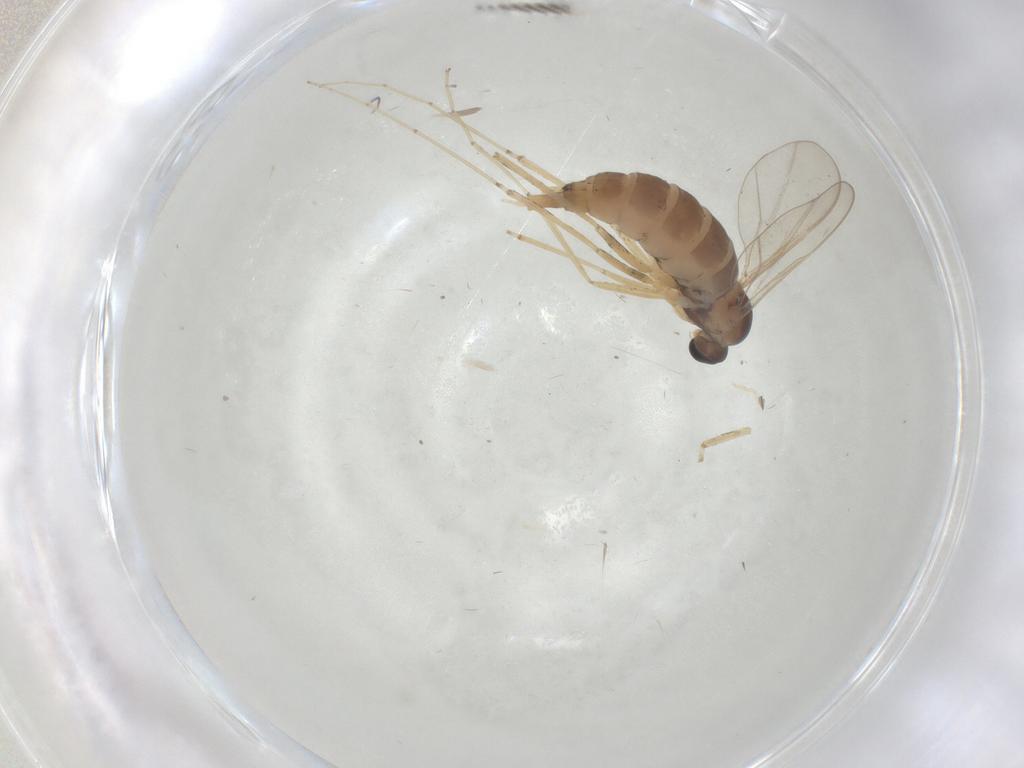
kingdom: Animalia
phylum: Arthropoda
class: Insecta
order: Diptera
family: Cecidomyiidae
